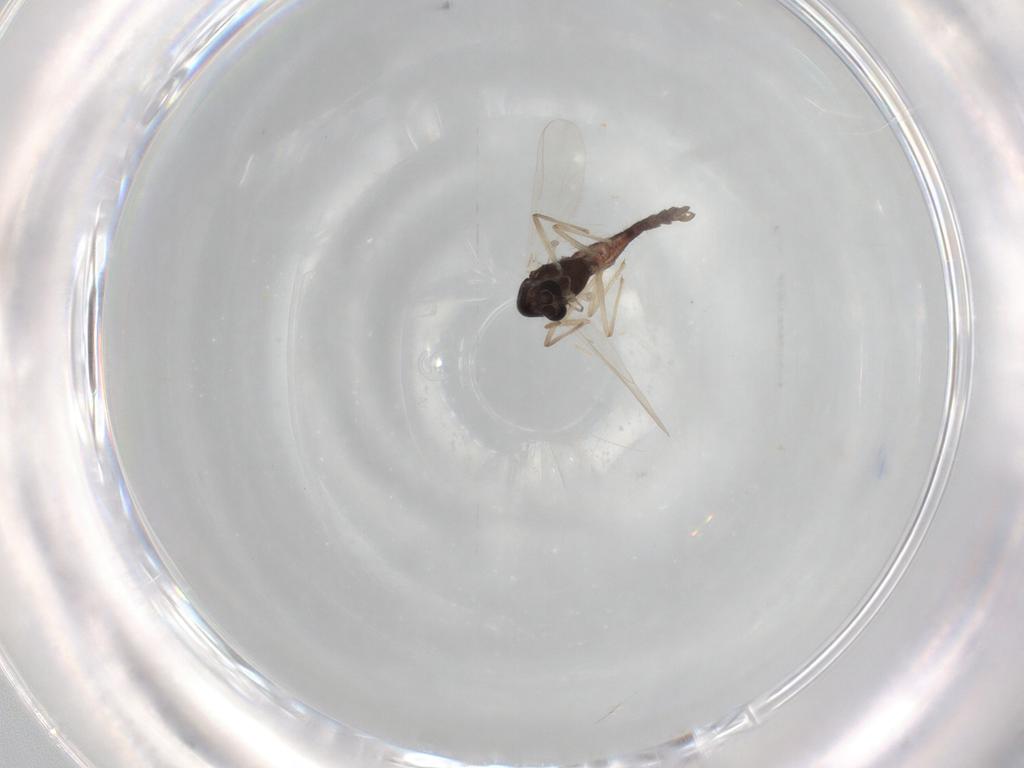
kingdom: Animalia
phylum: Arthropoda
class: Insecta
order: Diptera
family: Chironomidae
